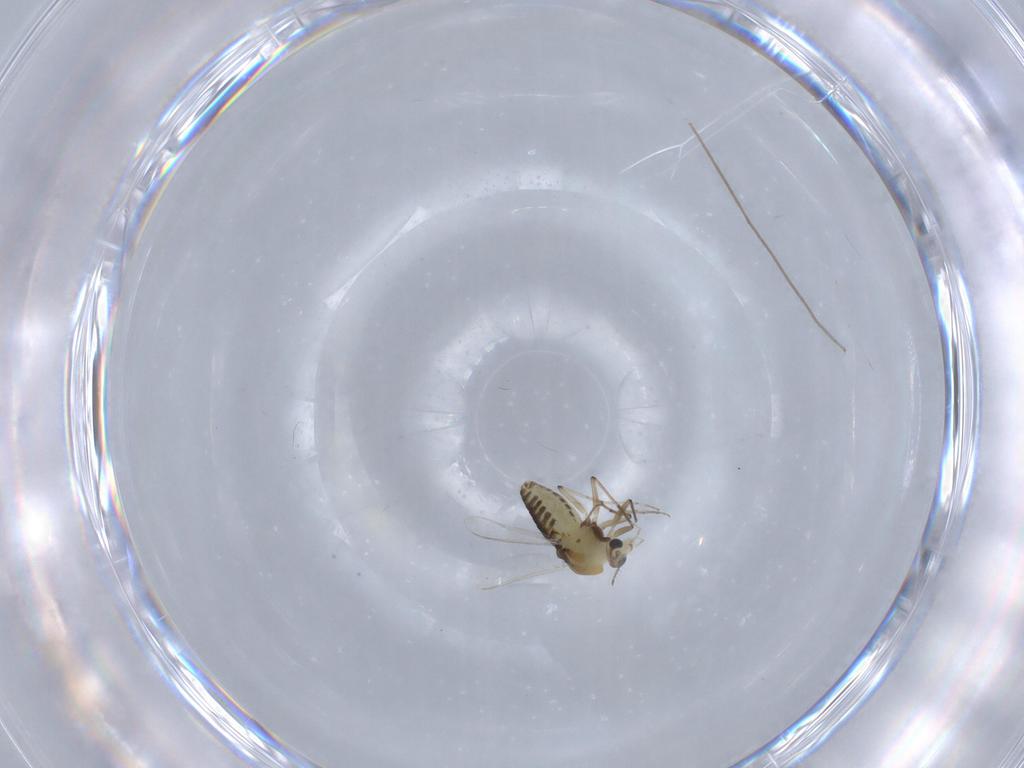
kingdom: Animalia
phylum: Arthropoda
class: Insecta
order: Diptera
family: Chironomidae
